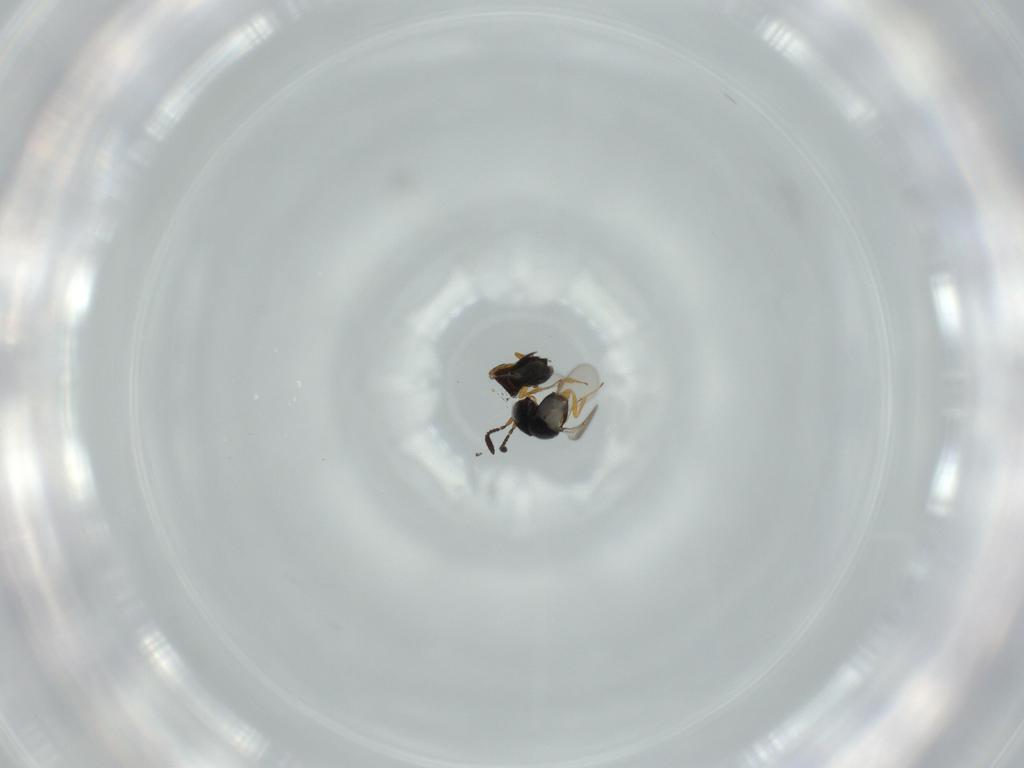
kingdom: Animalia
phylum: Arthropoda
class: Insecta
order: Hymenoptera
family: Scelionidae
